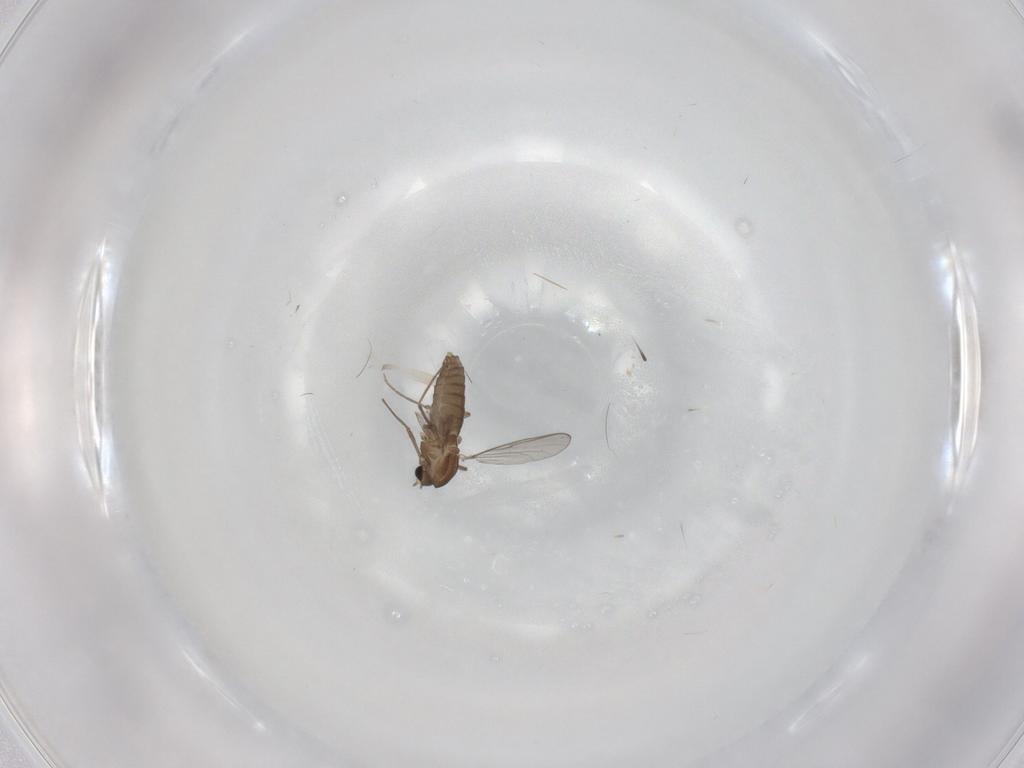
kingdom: Animalia
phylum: Arthropoda
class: Insecta
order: Diptera
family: Chironomidae
